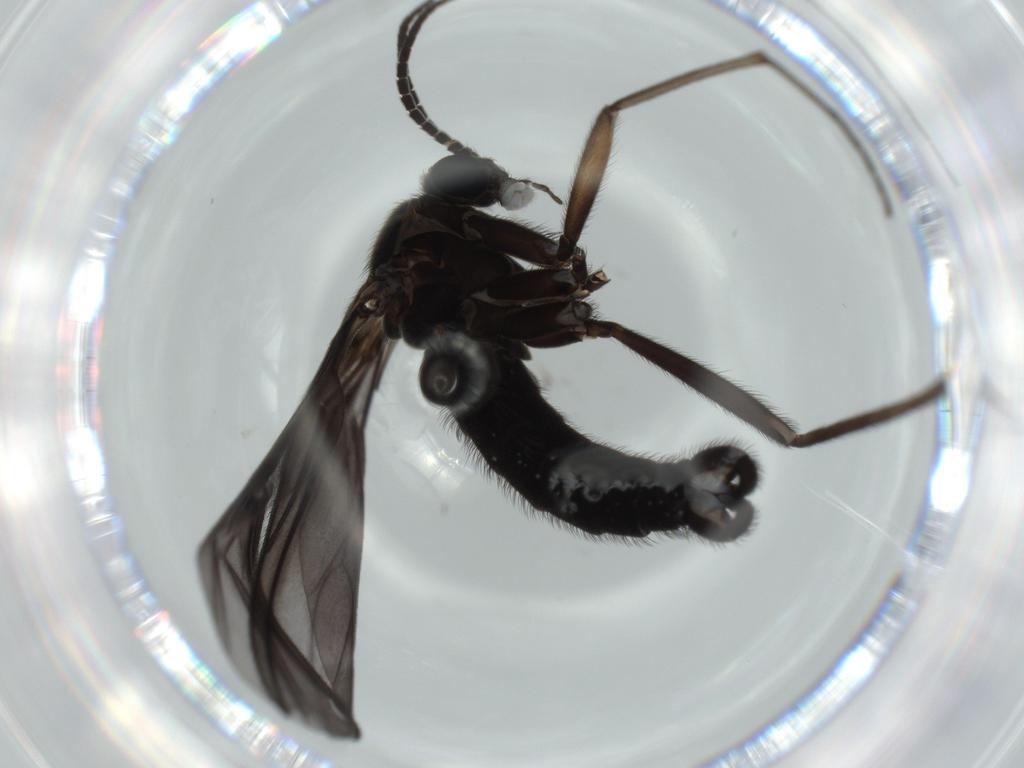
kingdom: Animalia
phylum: Arthropoda
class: Insecta
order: Diptera
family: Sciaridae
